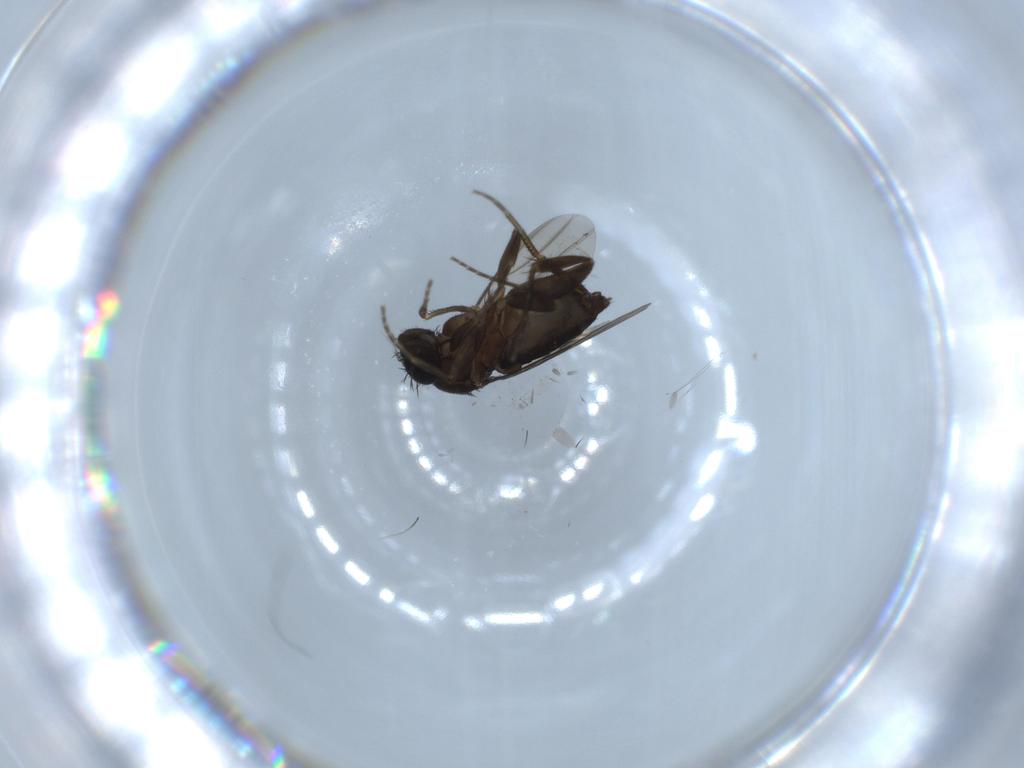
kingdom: Animalia
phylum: Arthropoda
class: Insecta
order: Diptera
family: Phoridae
